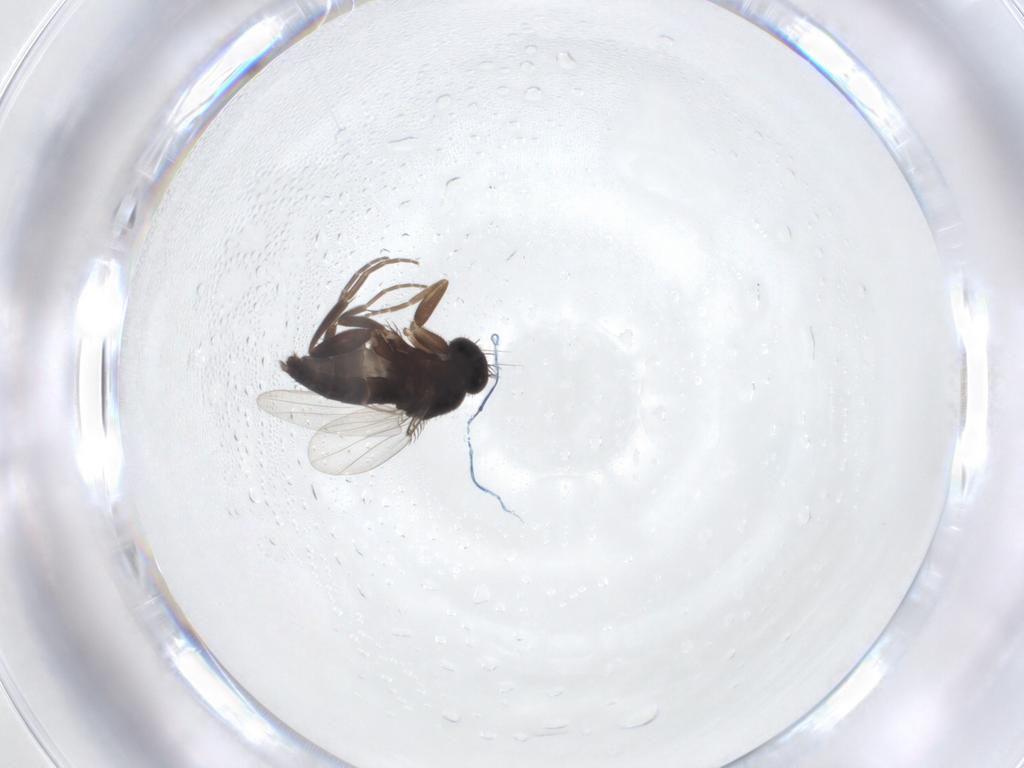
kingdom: Animalia
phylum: Arthropoda
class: Insecta
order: Diptera
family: Phoridae
